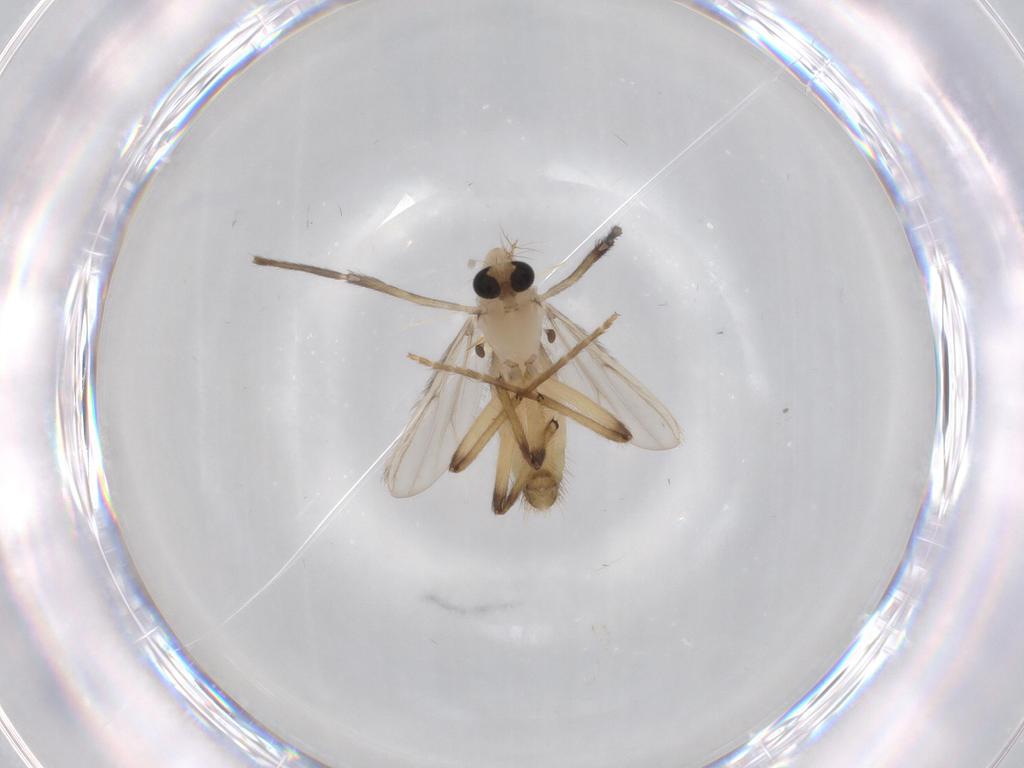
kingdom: Animalia
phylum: Arthropoda
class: Insecta
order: Diptera
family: Chironomidae
